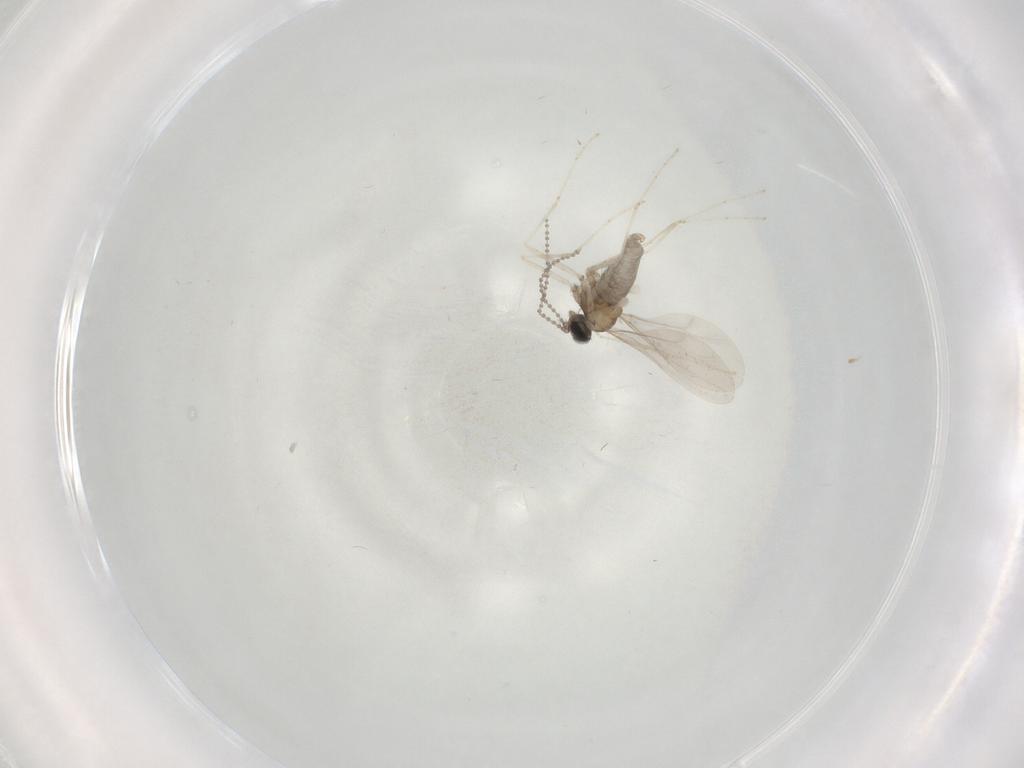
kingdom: Animalia
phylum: Arthropoda
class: Insecta
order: Diptera
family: Cecidomyiidae
